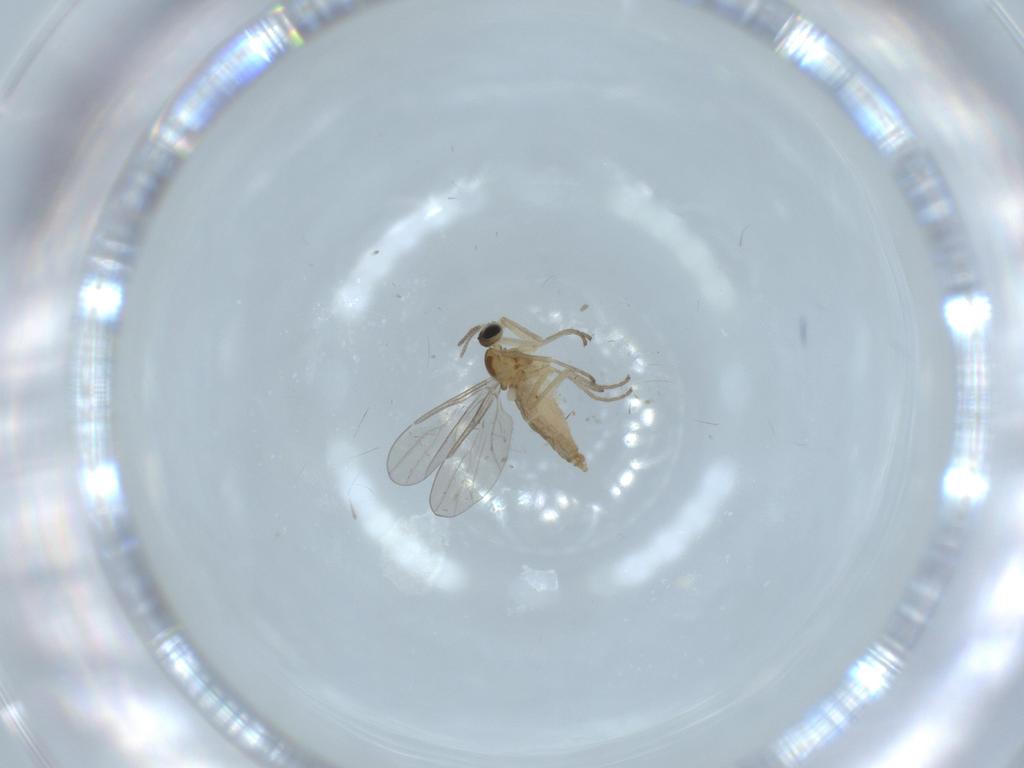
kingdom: Animalia
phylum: Arthropoda
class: Insecta
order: Diptera
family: Cecidomyiidae
